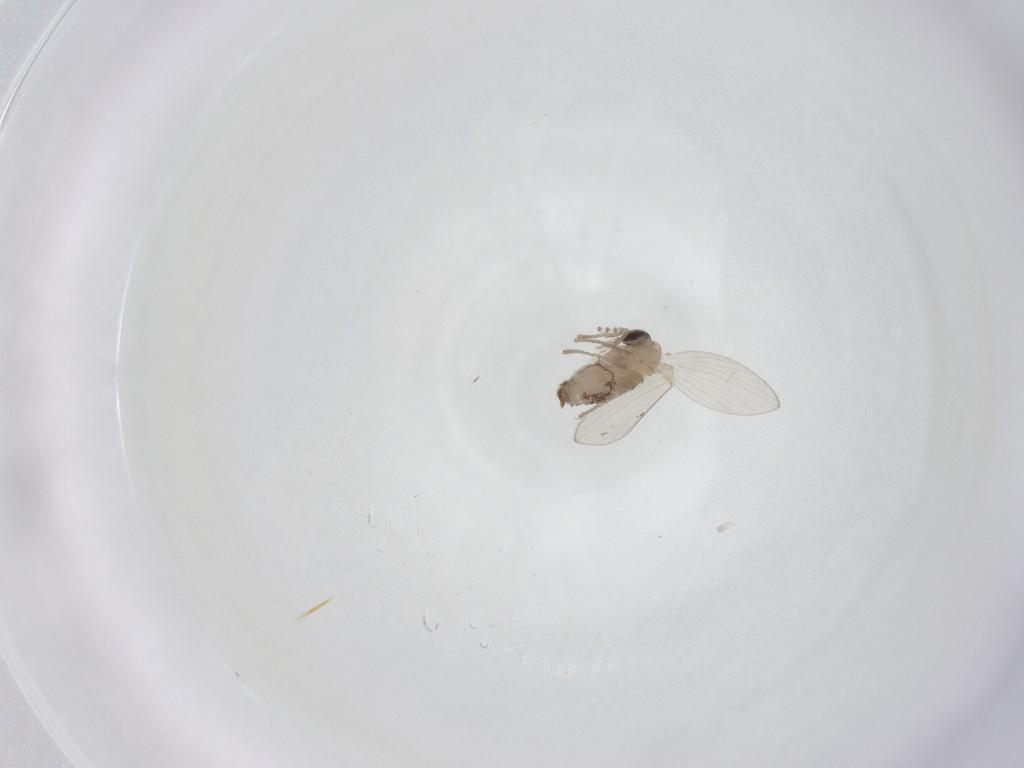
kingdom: Animalia
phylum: Arthropoda
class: Insecta
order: Diptera
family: Psychodidae
